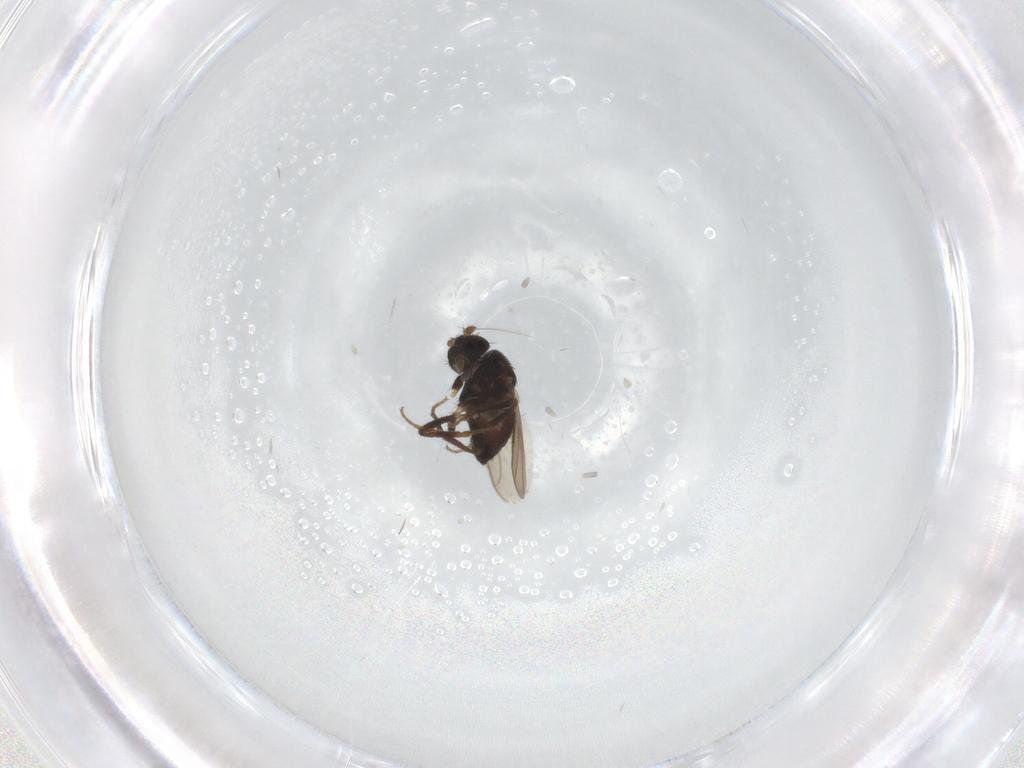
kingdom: Animalia
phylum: Arthropoda
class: Insecta
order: Diptera
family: Sphaeroceridae
